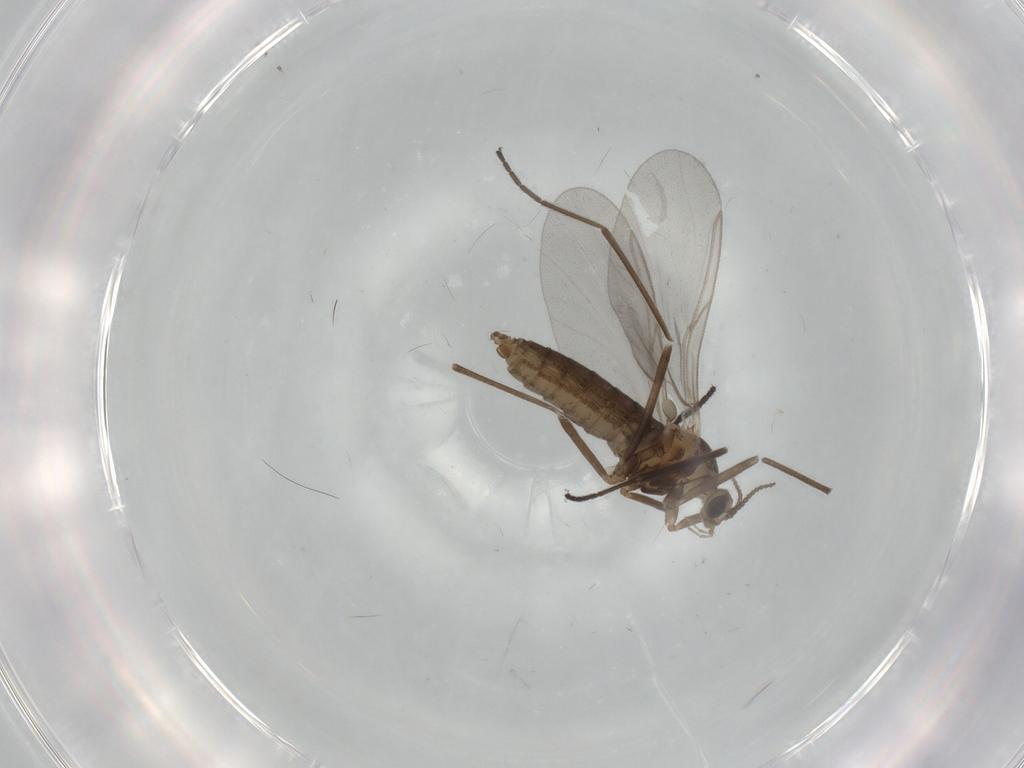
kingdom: Animalia
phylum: Arthropoda
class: Insecta
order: Diptera
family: Cecidomyiidae
